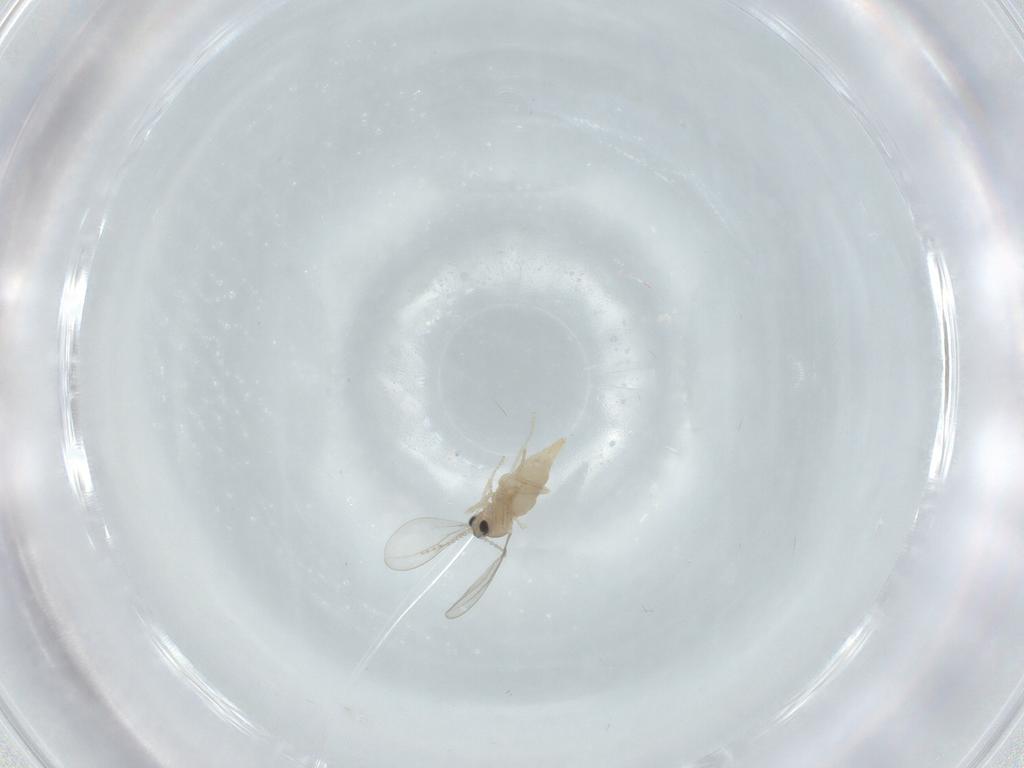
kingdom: Animalia
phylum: Arthropoda
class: Insecta
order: Diptera
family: Cecidomyiidae
